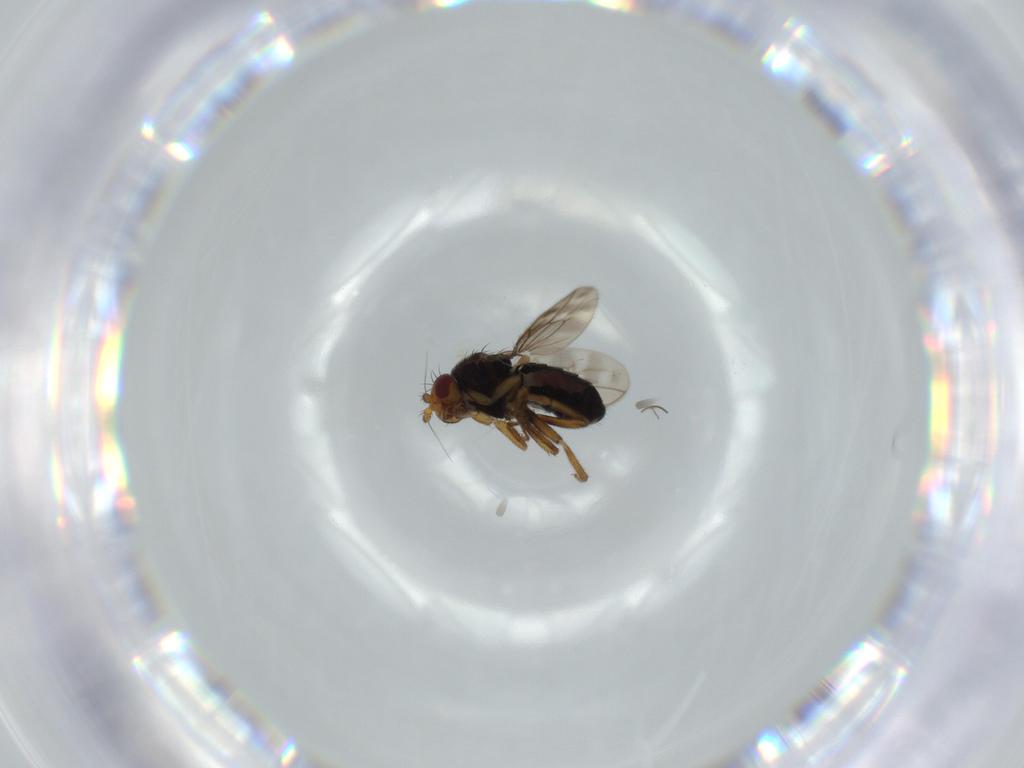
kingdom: Animalia
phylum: Arthropoda
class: Insecta
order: Diptera
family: Sphaeroceridae
